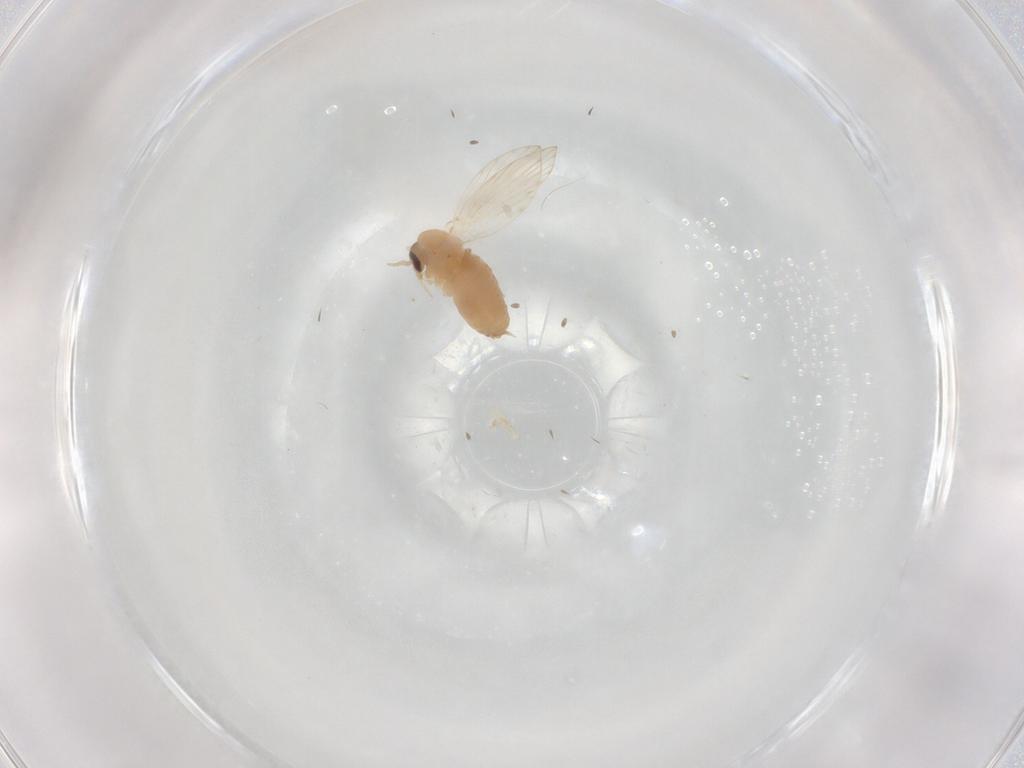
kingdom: Animalia
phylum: Arthropoda
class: Insecta
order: Diptera
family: Psychodidae
